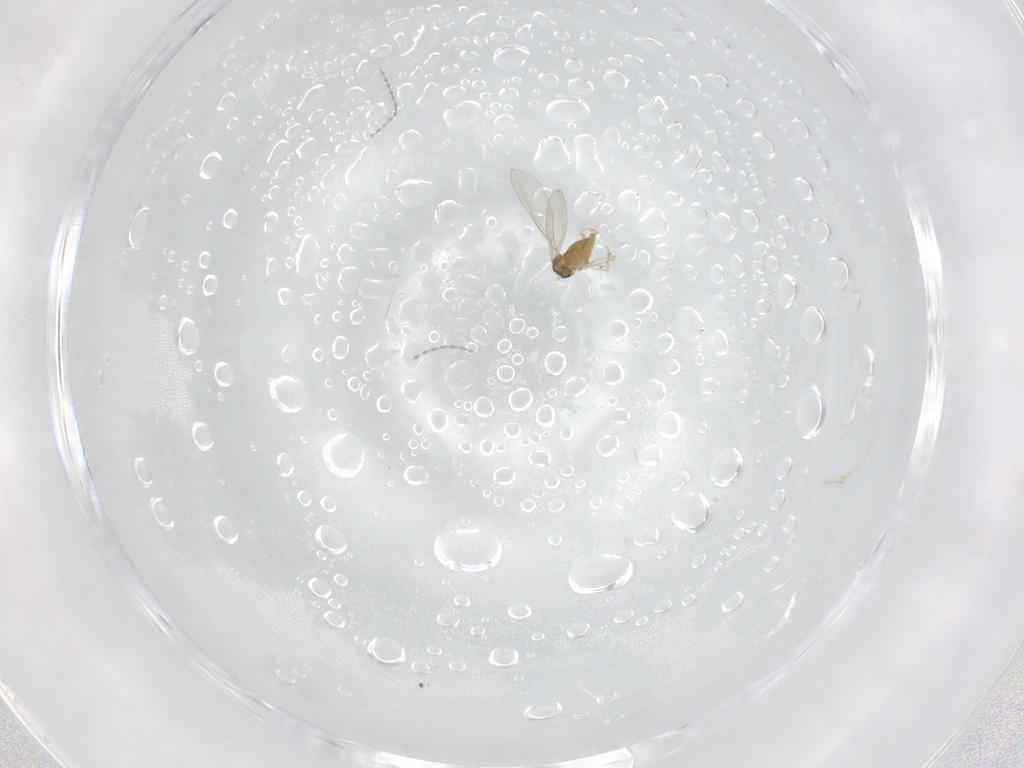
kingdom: Animalia
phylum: Arthropoda
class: Insecta
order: Diptera
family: Cecidomyiidae
